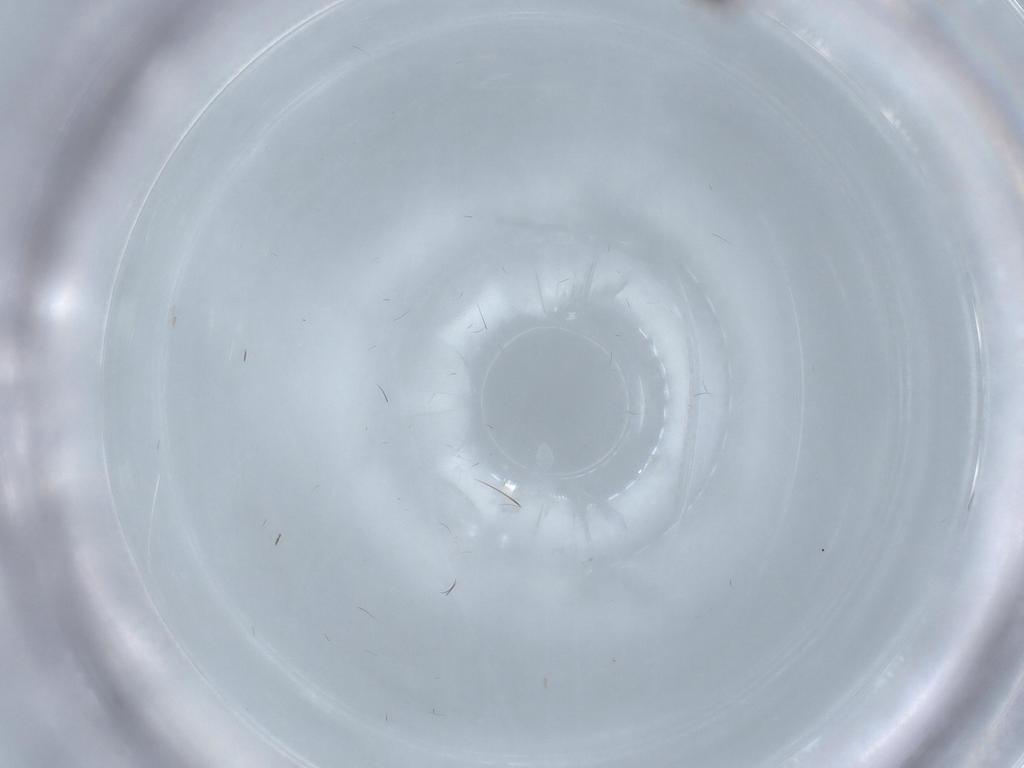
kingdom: Animalia
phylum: Arthropoda
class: Insecta
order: Diptera
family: Chironomidae
